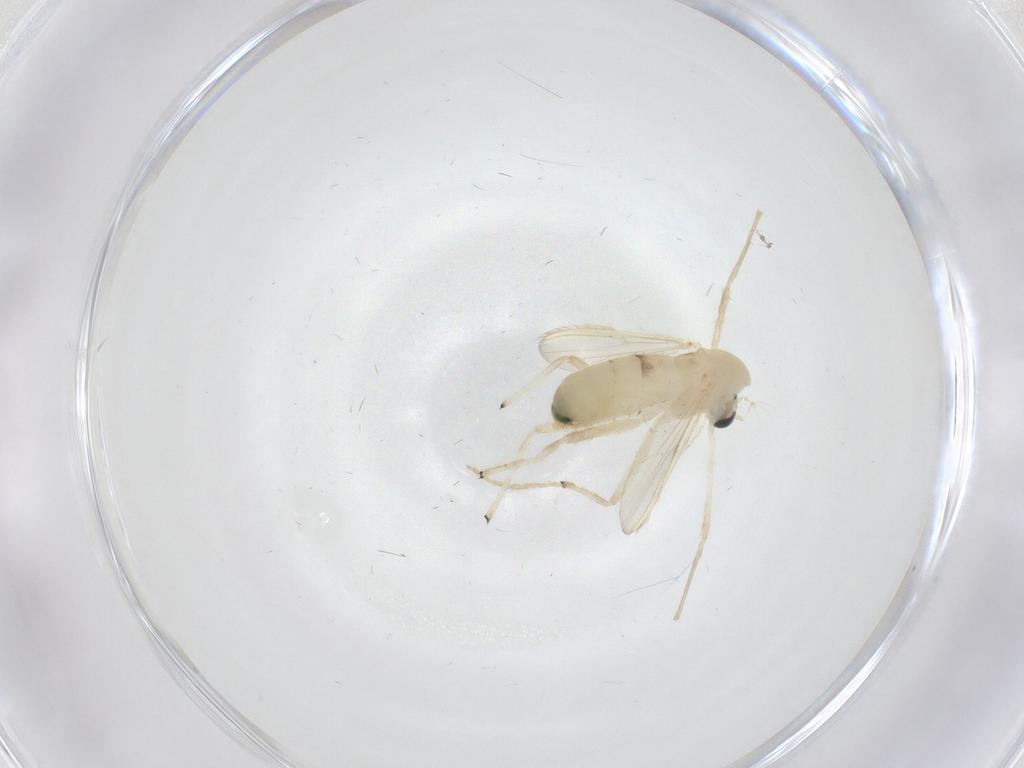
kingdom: Animalia
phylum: Arthropoda
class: Insecta
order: Diptera
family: Chironomidae
